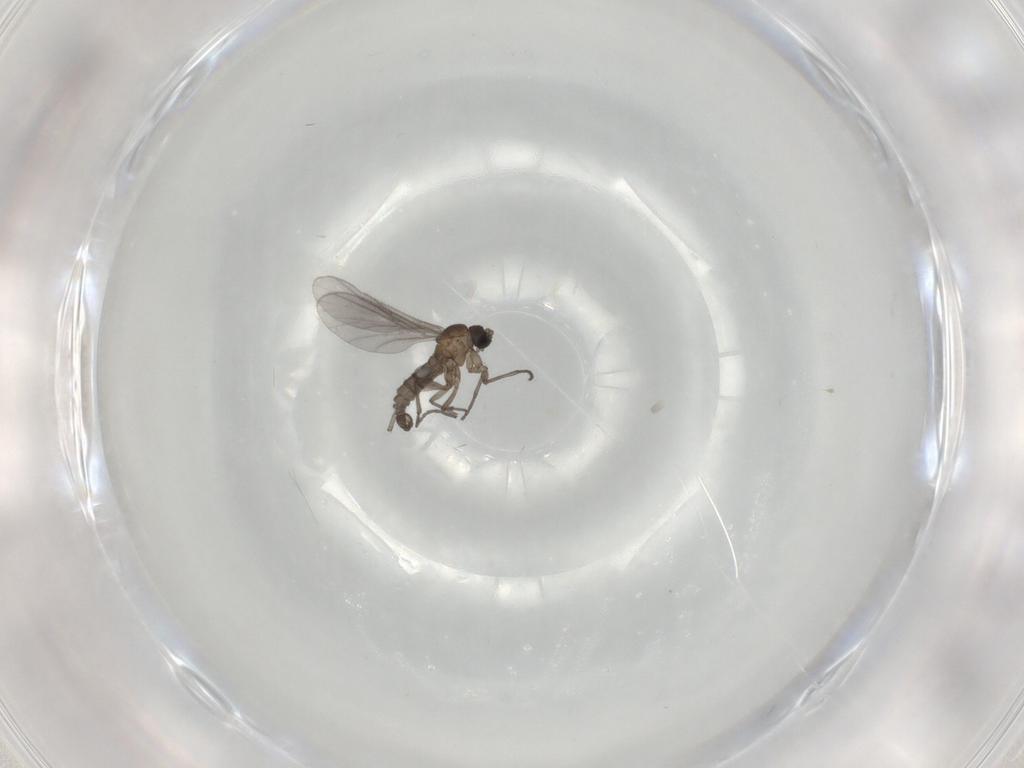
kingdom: Animalia
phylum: Arthropoda
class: Insecta
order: Diptera
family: Sciaridae
